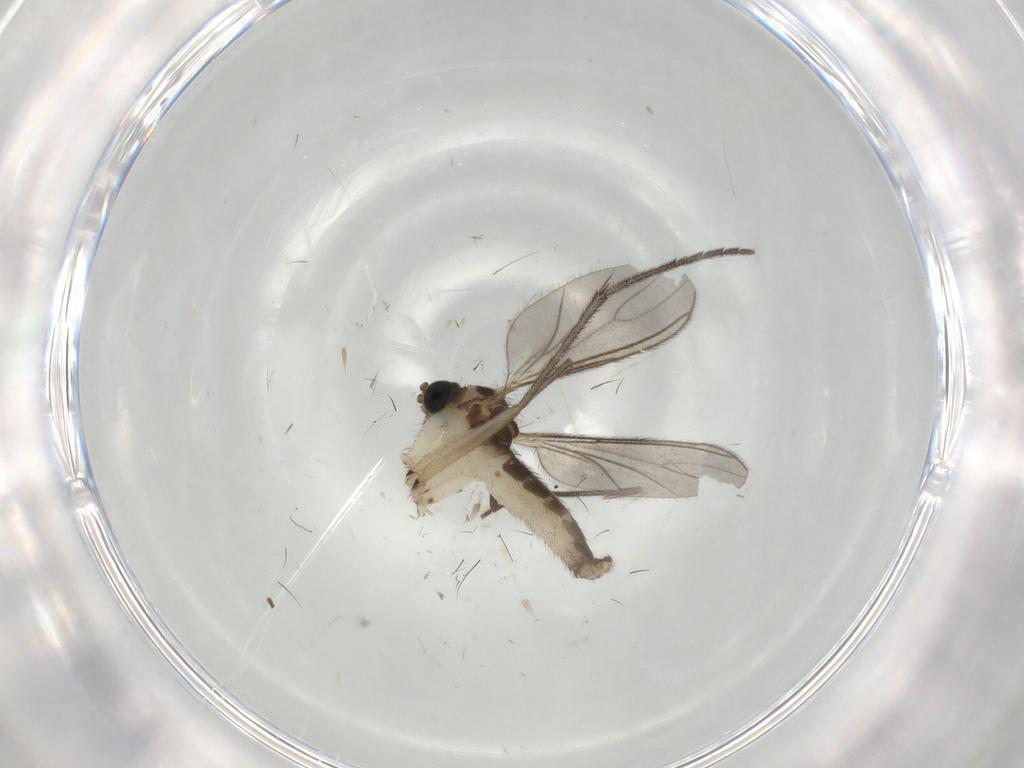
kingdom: Animalia
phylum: Arthropoda
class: Insecta
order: Diptera
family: Sciaridae
